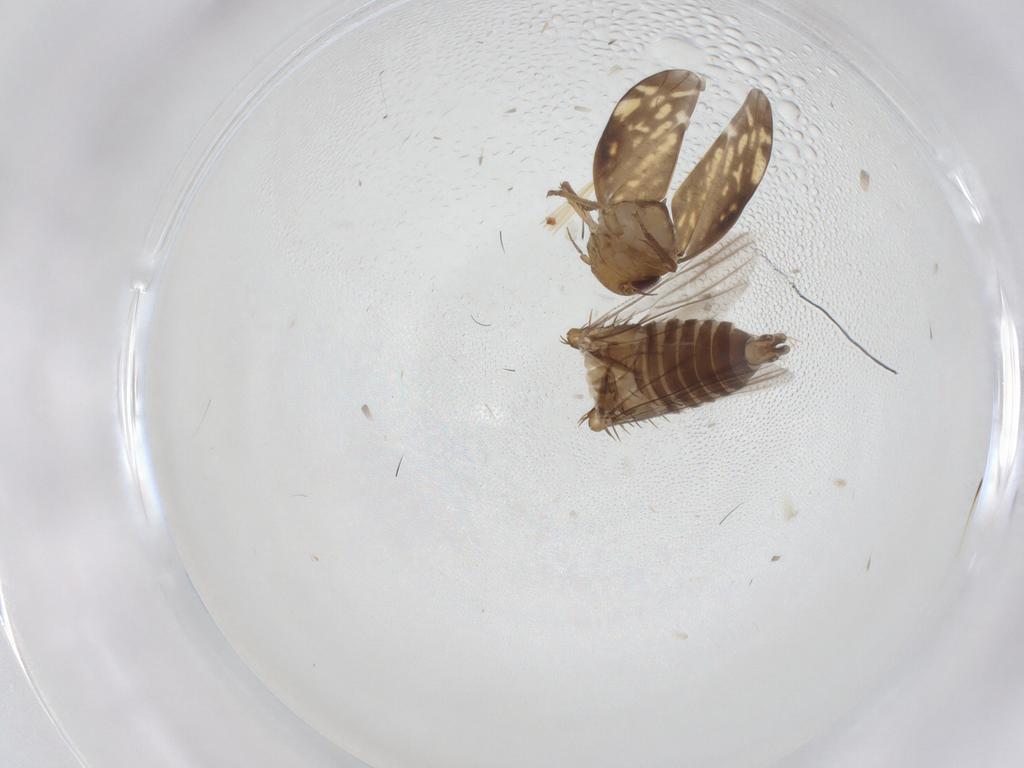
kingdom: Animalia
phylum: Arthropoda
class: Insecta
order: Hemiptera
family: Cicadellidae
